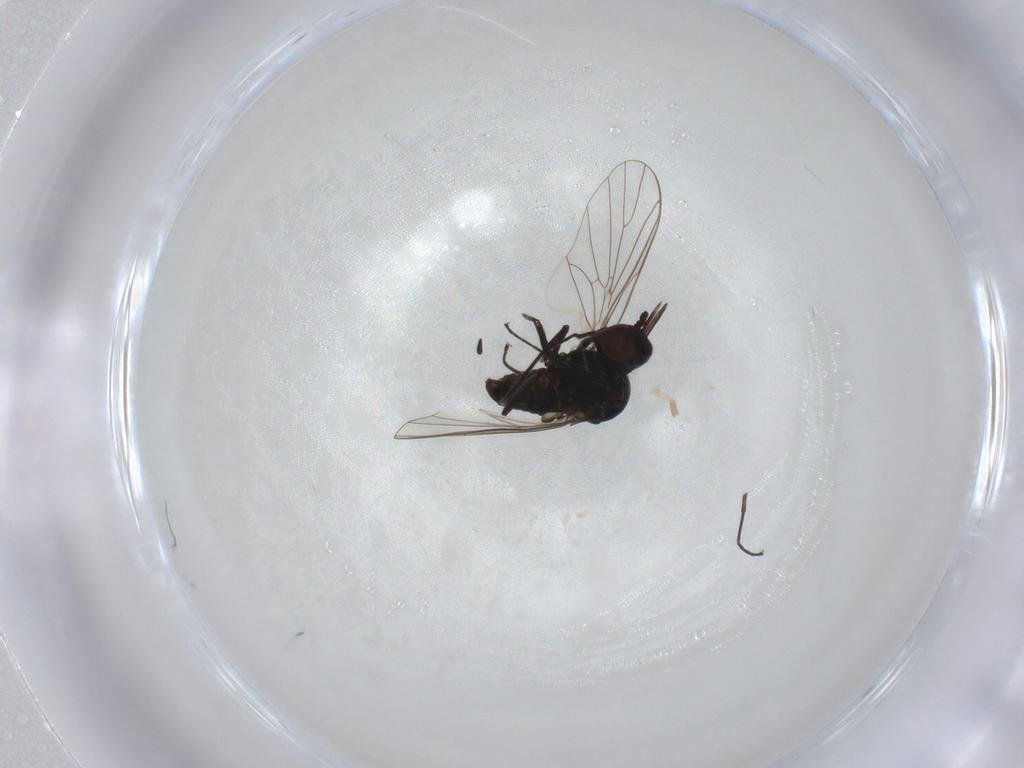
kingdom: Animalia
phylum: Arthropoda
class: Insecta
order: Diptera
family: Bombyliidae
